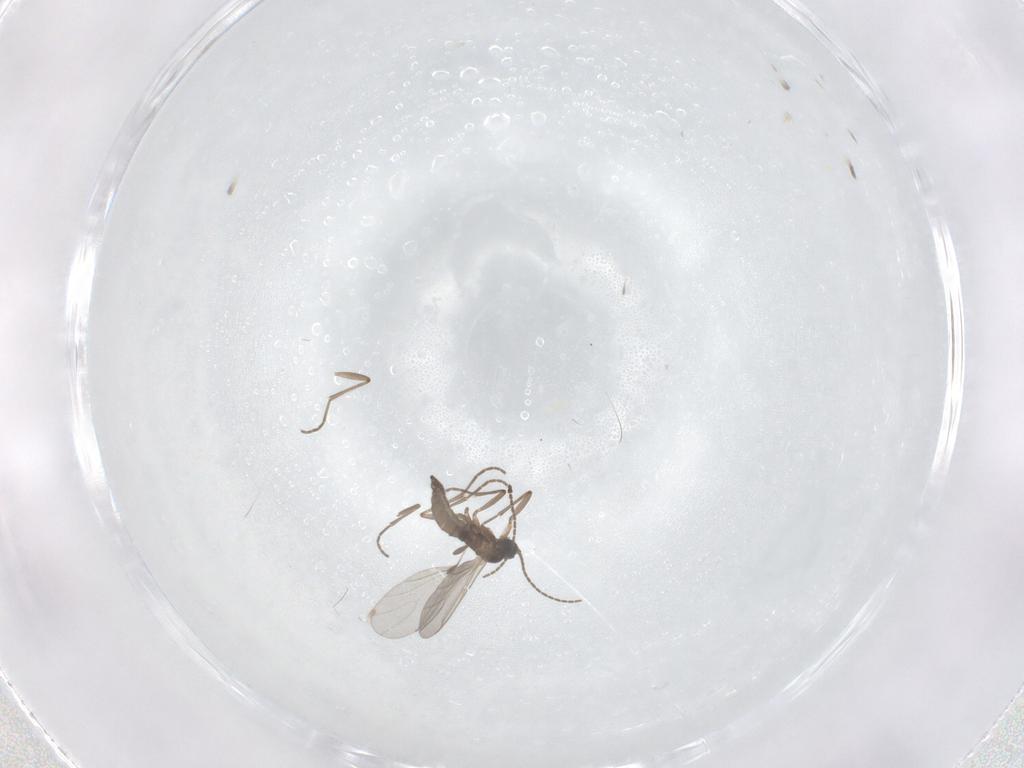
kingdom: Animalia
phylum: Arthropoda
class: Insecta
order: Diptera
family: Sciaridae
